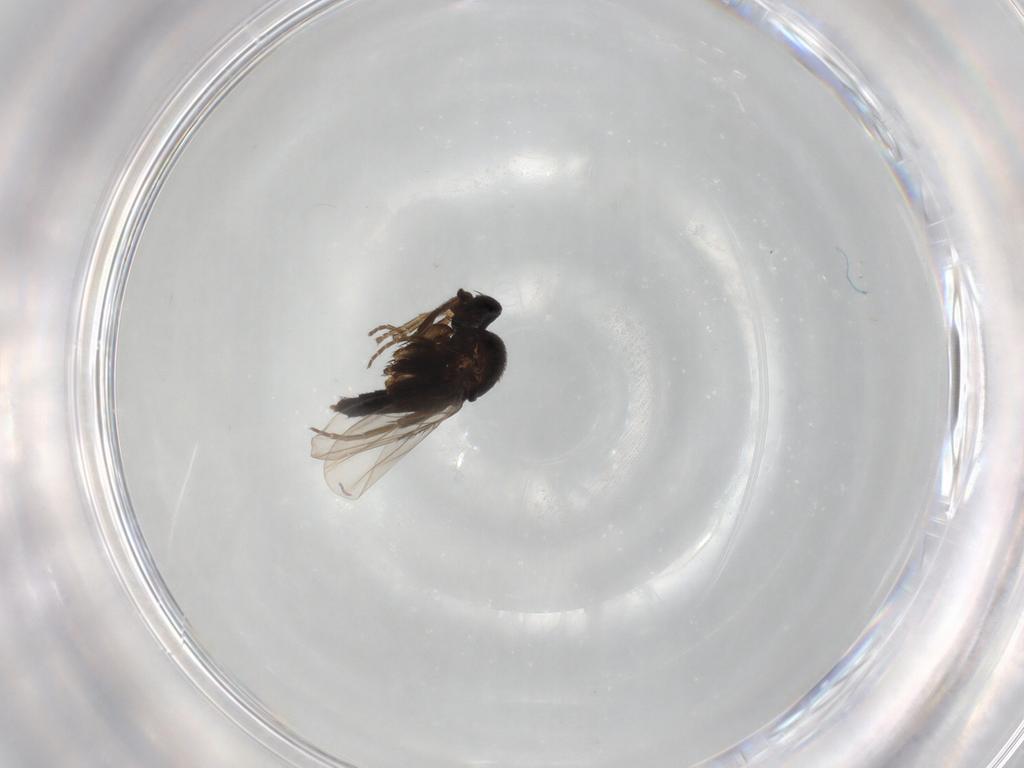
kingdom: Animalia
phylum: Arthropoda
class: Insecta
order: Diptera
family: Phoridae
